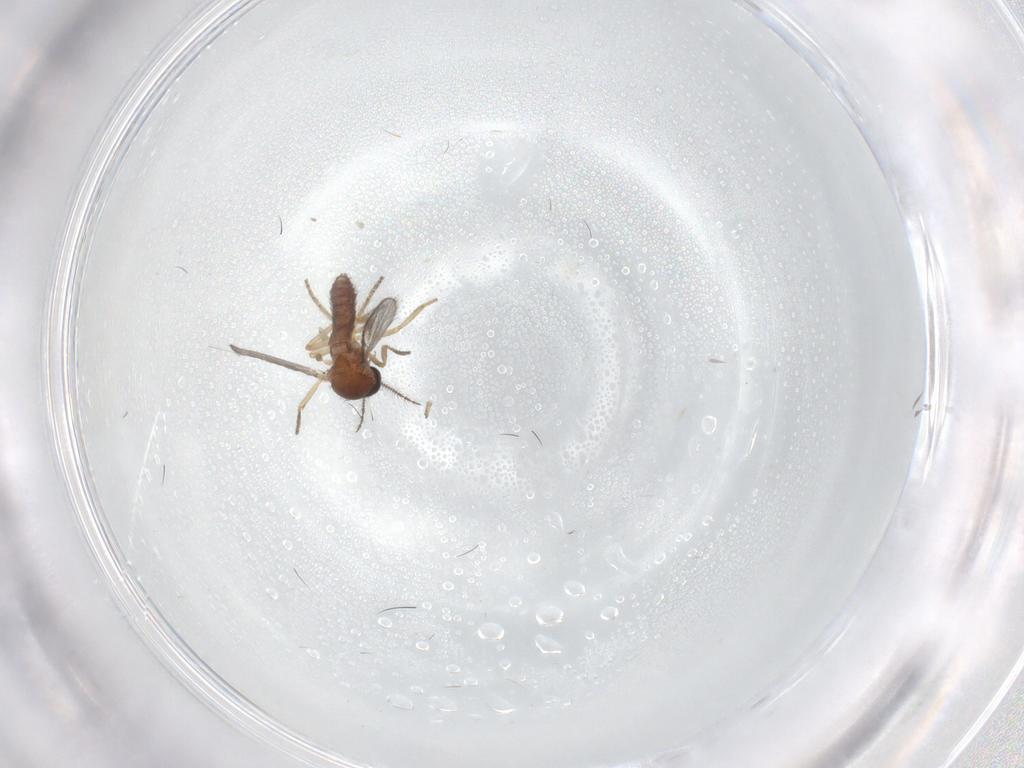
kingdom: Animalia
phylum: Arthropoda
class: Insecta
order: Diptera
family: Ceratopogonidae
